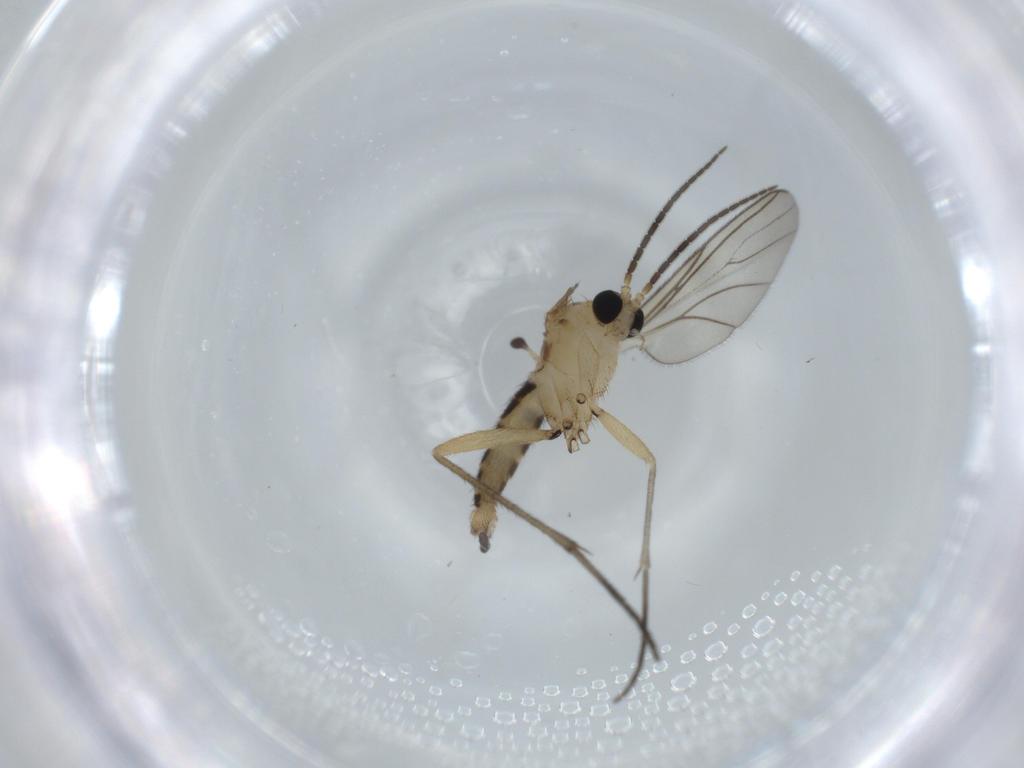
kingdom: Animalia
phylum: Arthropoda
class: Insecta
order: Diptera
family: Sciaridae
